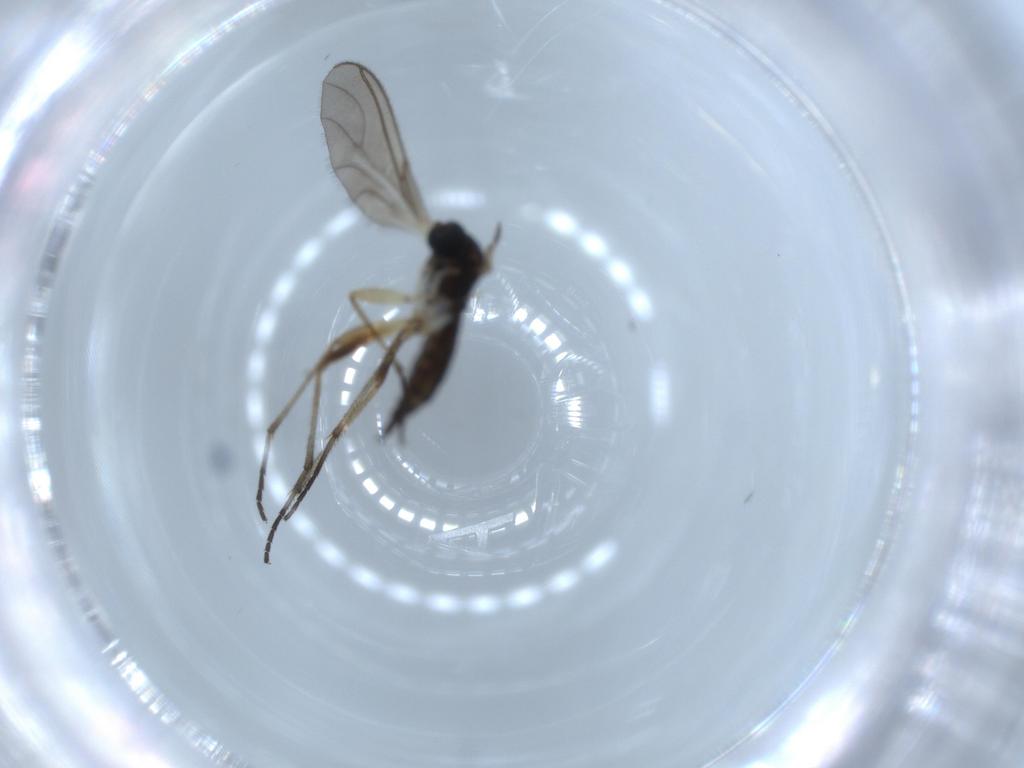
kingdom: Animalia
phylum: Arthropoda
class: Insecta
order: Diptera
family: Sciaridae
